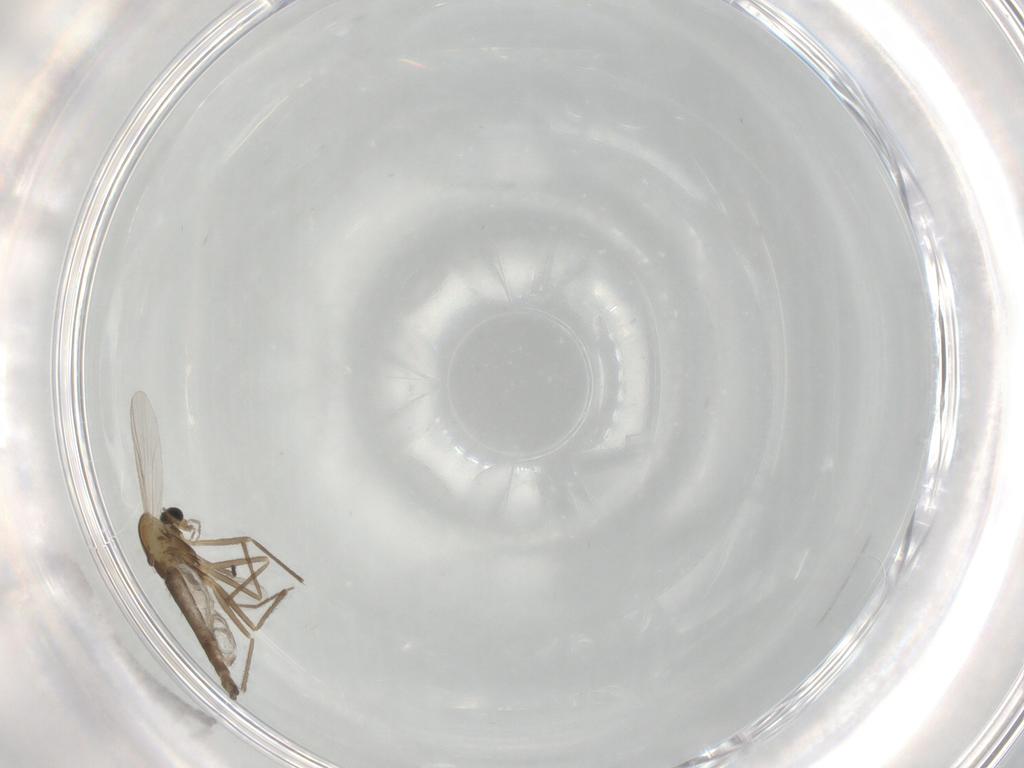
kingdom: Animalia
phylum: Arthropoda
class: Insecta
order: Diptera
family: Chironomidae
